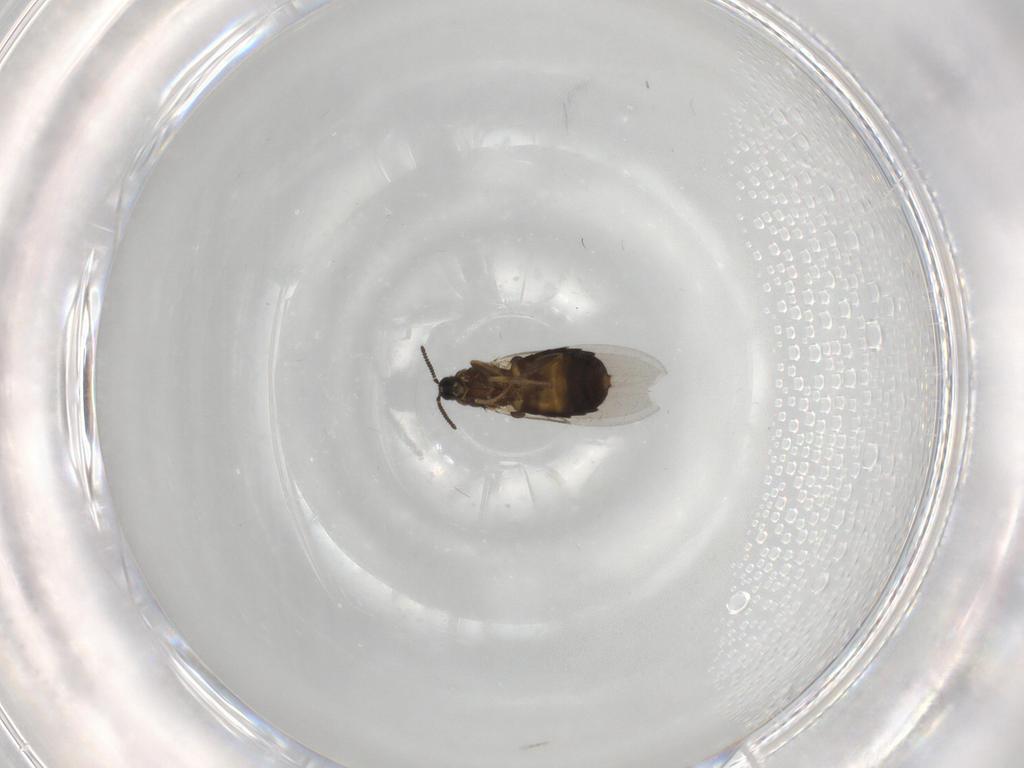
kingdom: Animalia
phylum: Arthropoda
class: Insecta
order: Diptera
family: Scatopsidae
